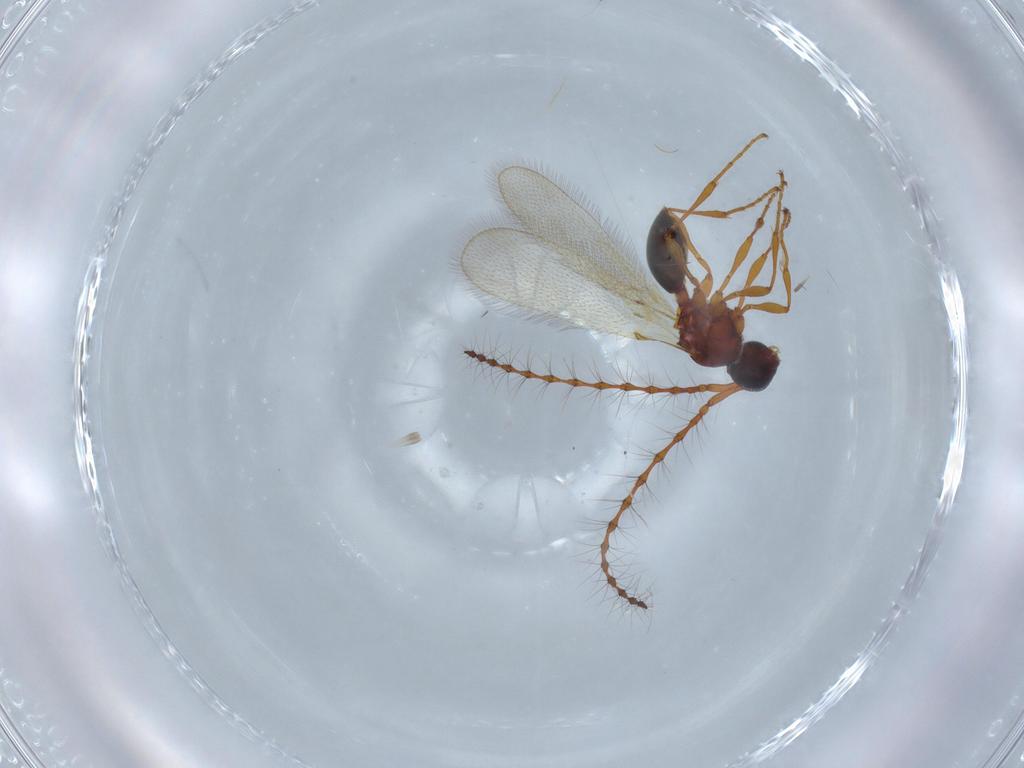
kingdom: Animalia
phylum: Arthropoda
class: Insecta
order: Hymenoptera
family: Diapriidae
